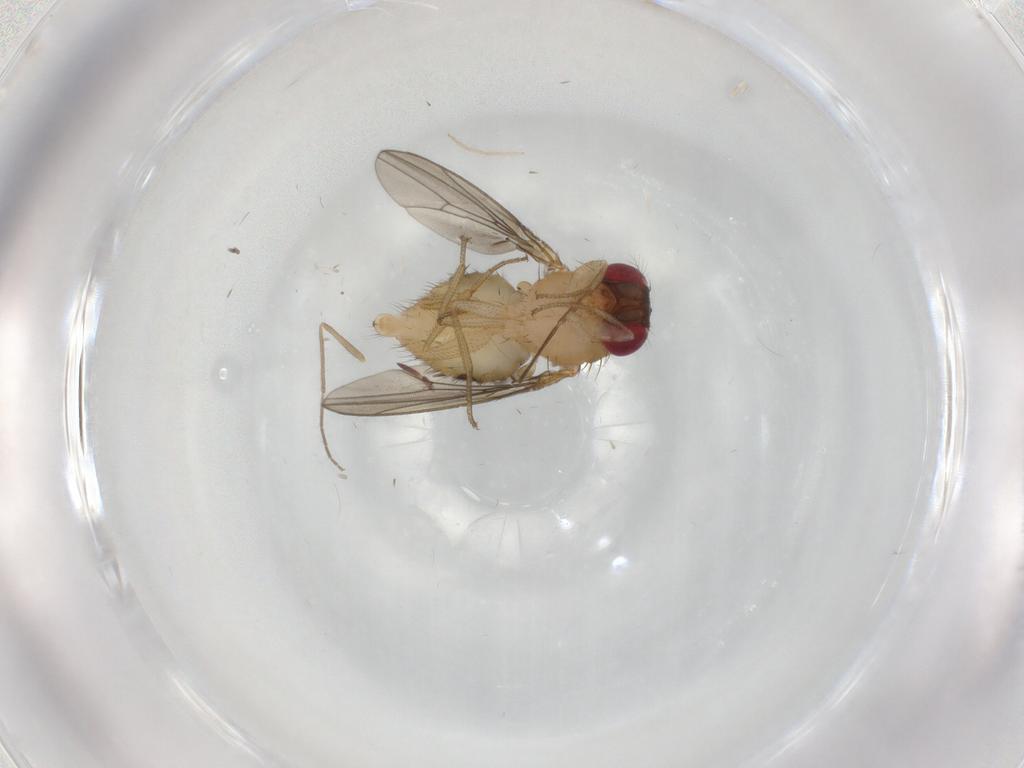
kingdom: Animalia
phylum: Arthropoda
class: Insecta
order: Diptera
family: Drosophilidae
